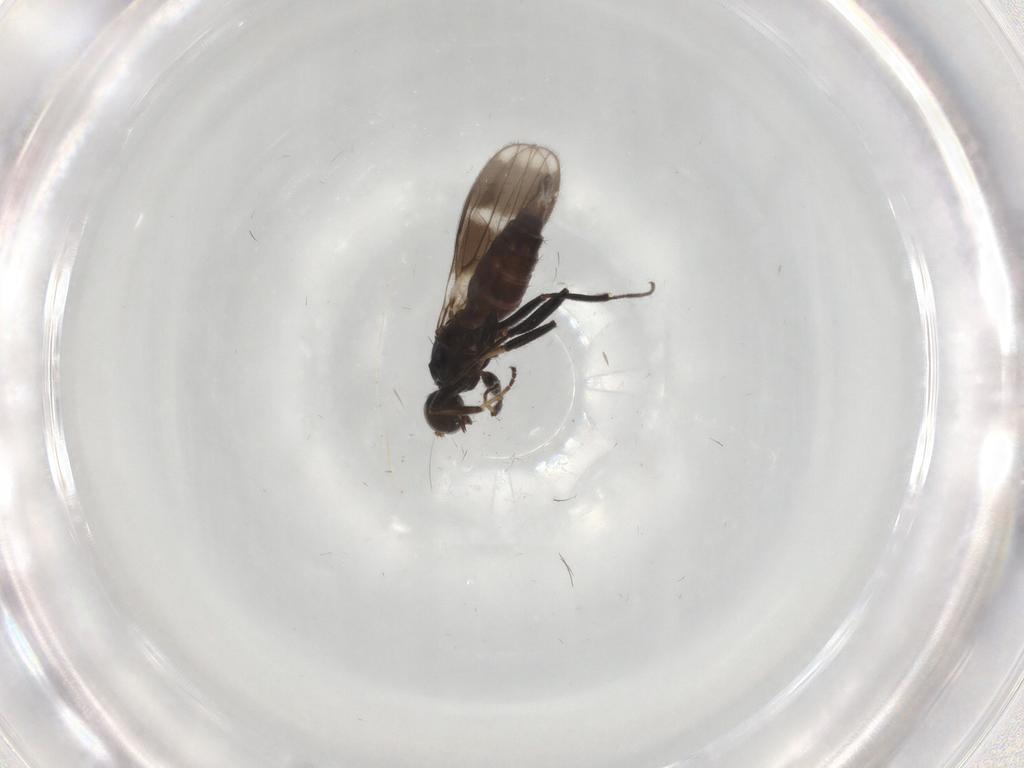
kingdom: Animalia
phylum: Arthropoda
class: Insecta
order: Diptera
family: Hybotidae
